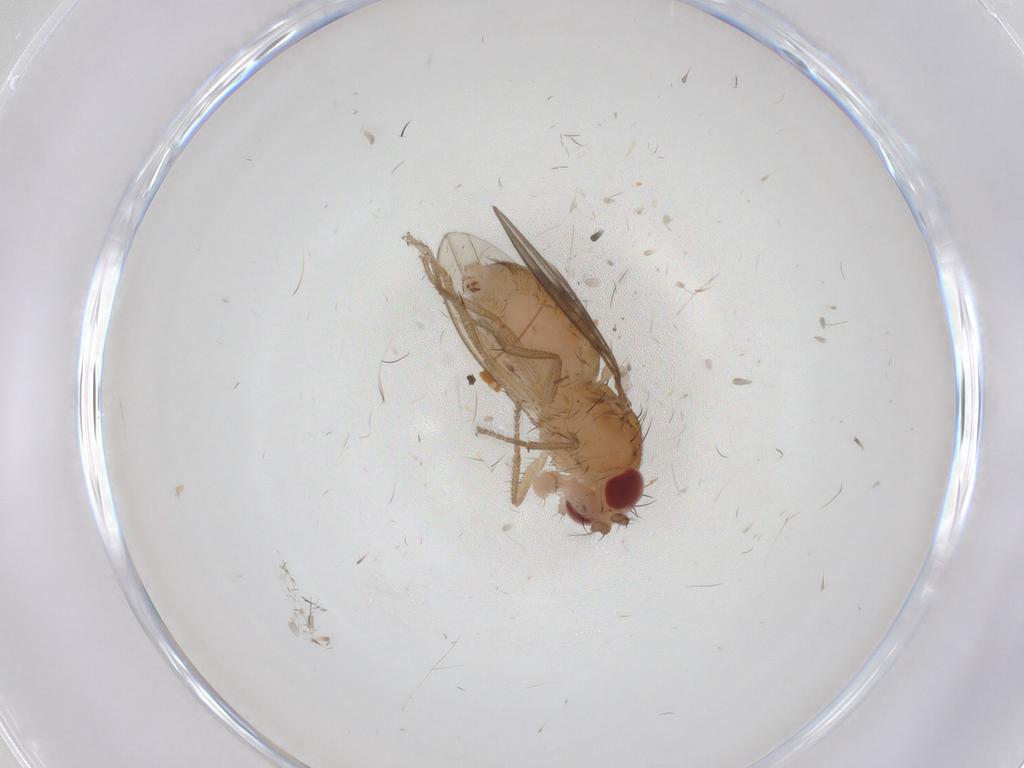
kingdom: Animalia
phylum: Arthropoda
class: Insecta
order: Diptera
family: Drosophilidae
